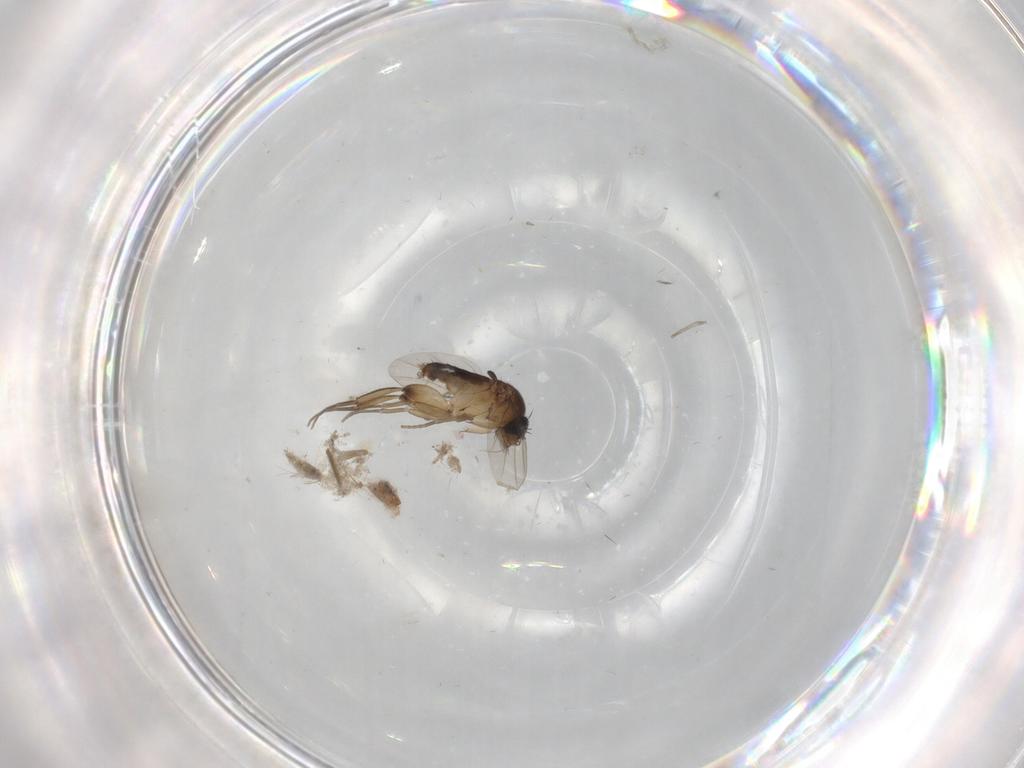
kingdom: Animalia
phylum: Arthropoda
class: Insecta
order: Diptera
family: Phoridae
